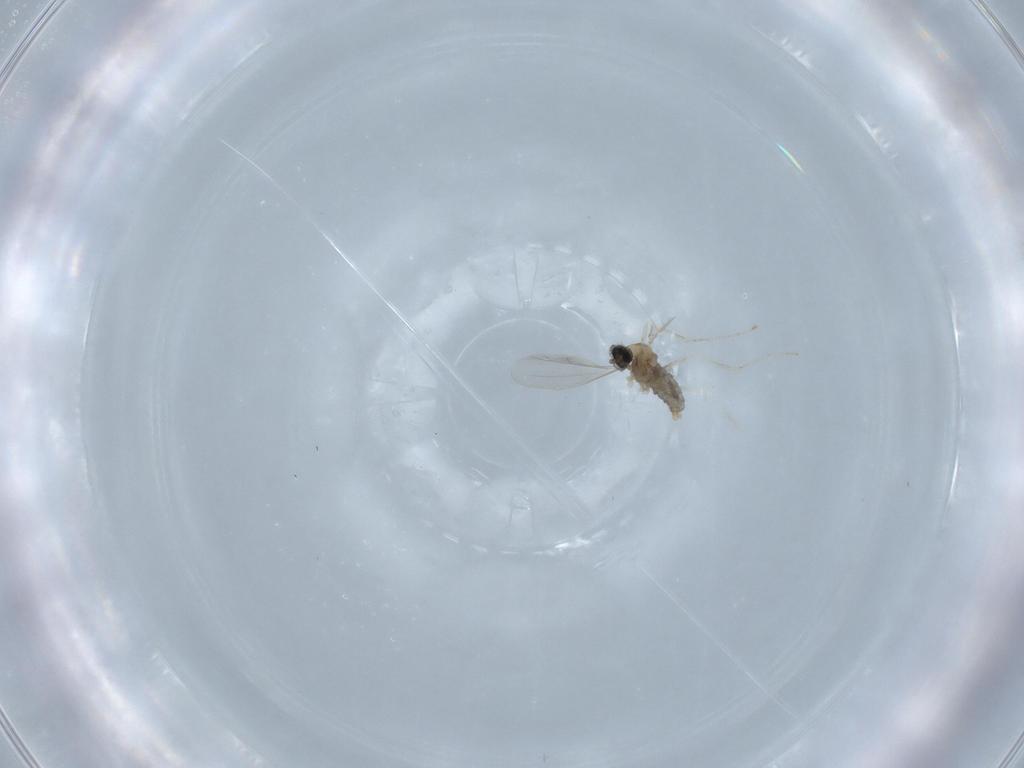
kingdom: Animalia
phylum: Arthropoda
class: Insecta
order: Diptera
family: Cecidomyiidae
